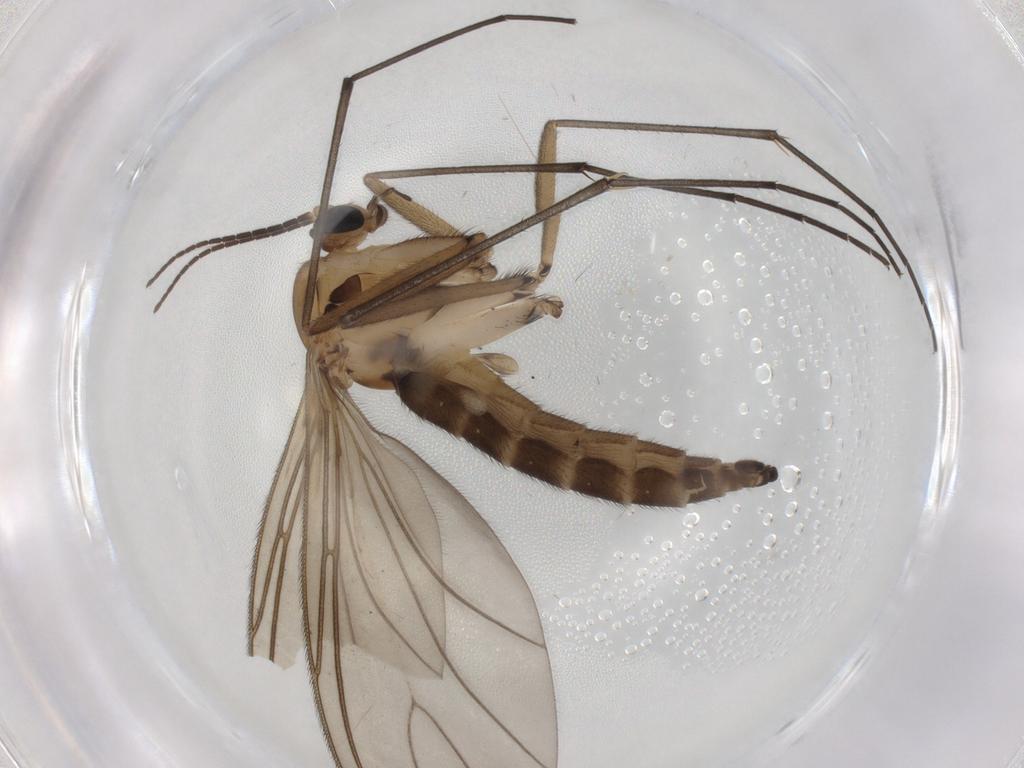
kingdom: Animalia
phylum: Arthropoda
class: Insecta
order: Diptera
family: Sciaridae
